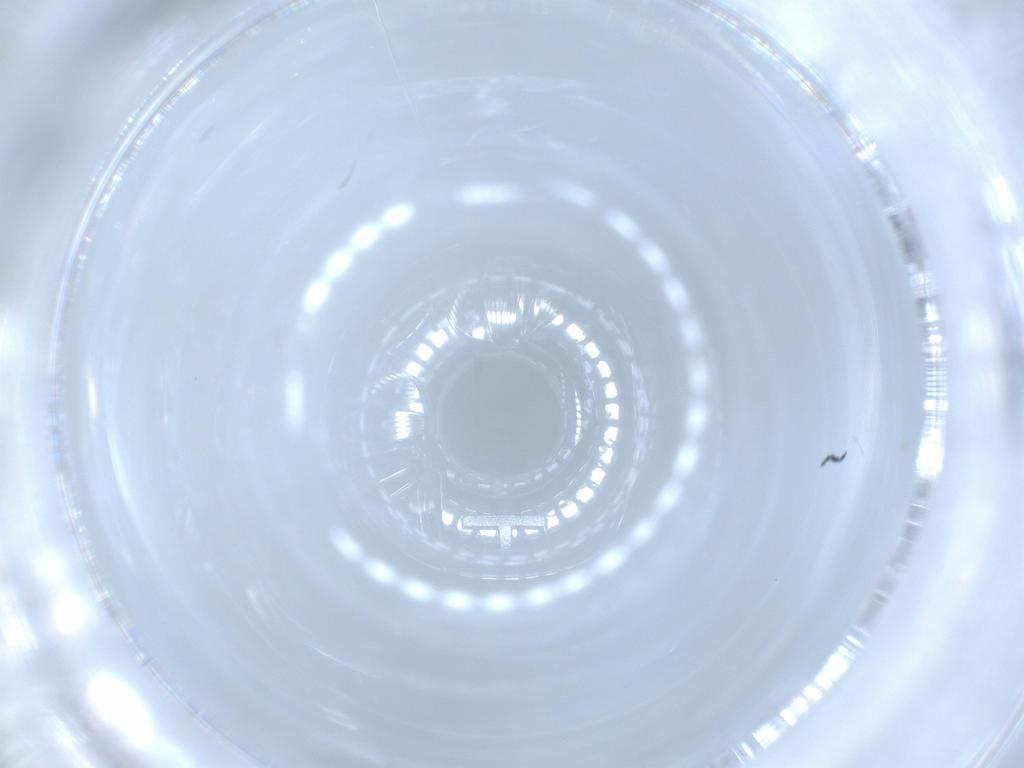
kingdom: Animalia
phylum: Arthropoda
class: Insecta
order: Diptera
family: Cecidomyiidae
